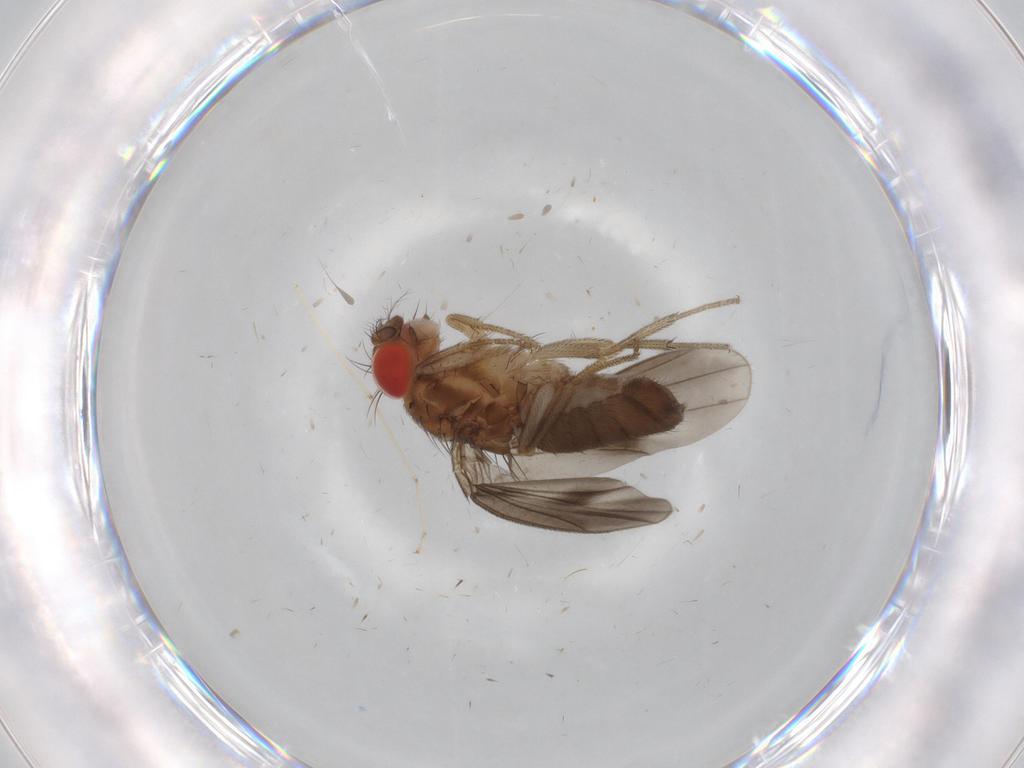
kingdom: Animalia
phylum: Arthropoda
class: Insecta
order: Diptera
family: Drosophilidae
